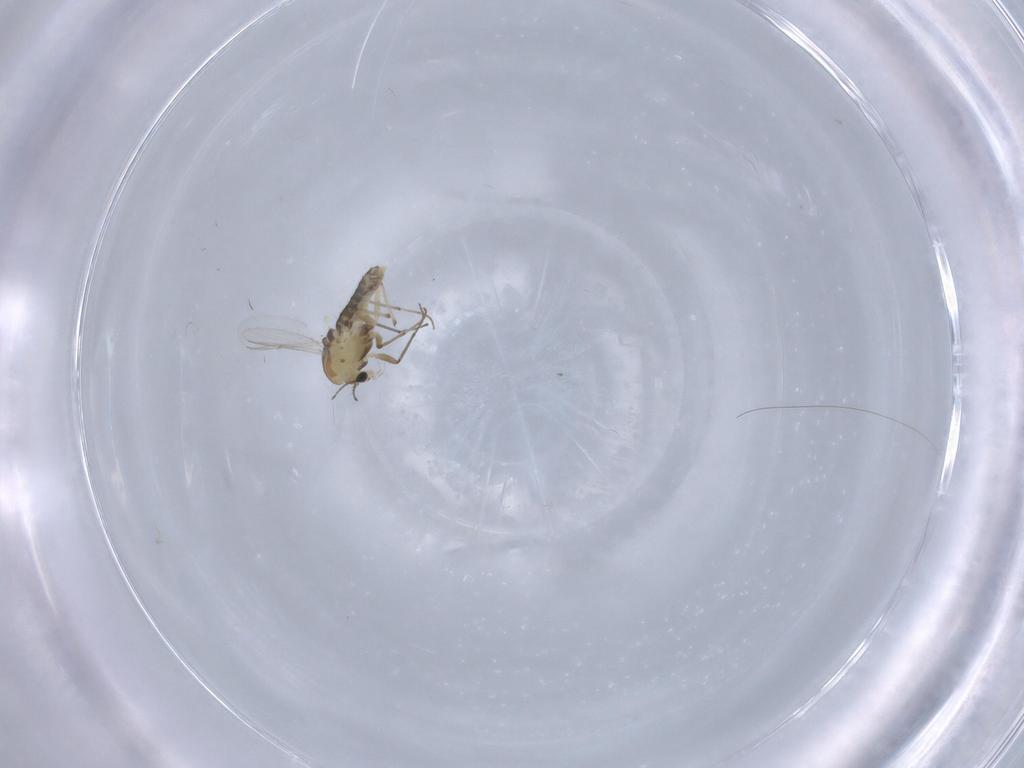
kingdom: Animalia
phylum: Arthropoda
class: Insecta
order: Diptera
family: Chironomidae
